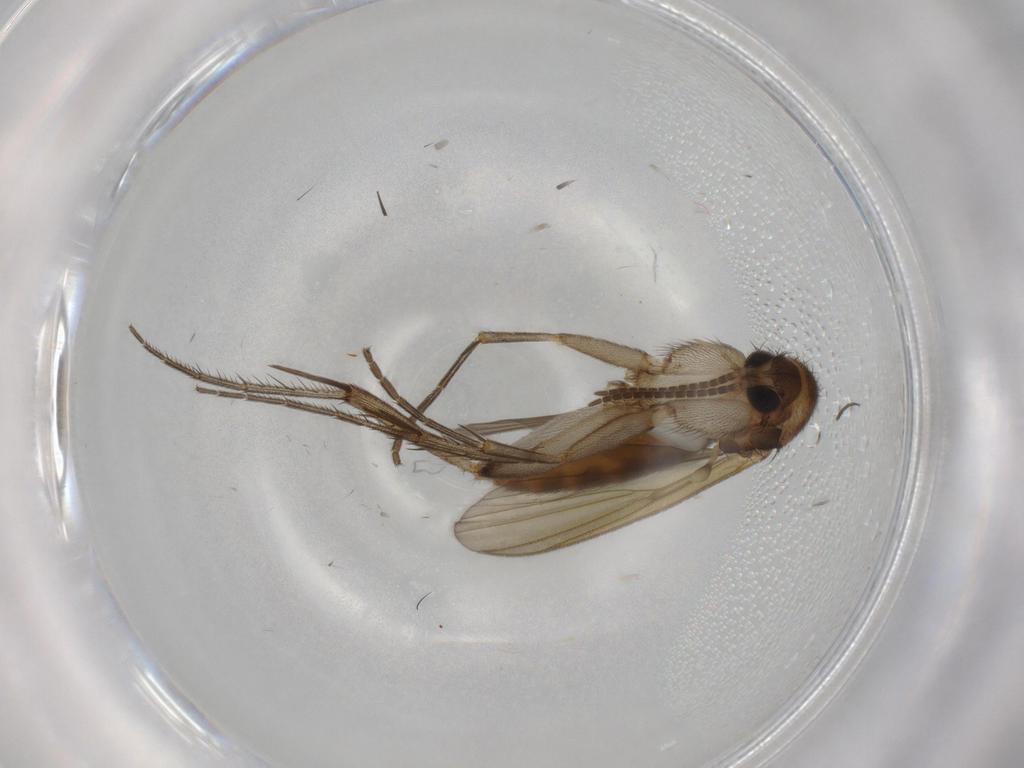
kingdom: Animalia
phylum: Arthropoda
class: Insecta
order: Diptera
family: Mycetophilidae
